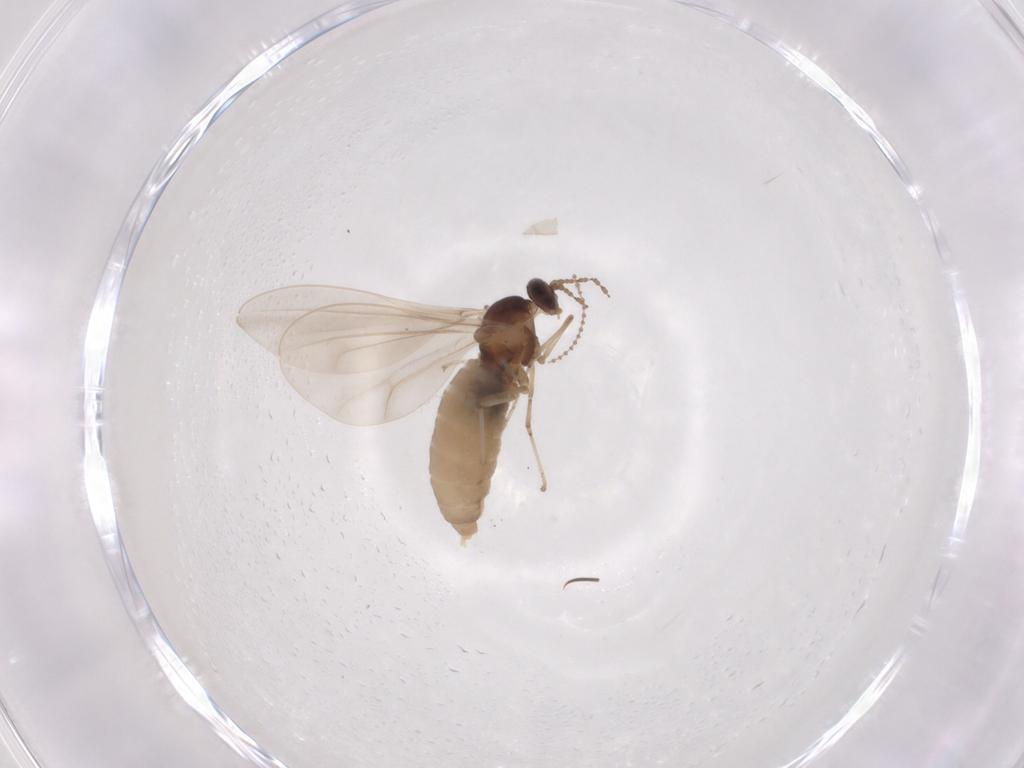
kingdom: Animalia
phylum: Arthropoda
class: Insecta
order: Diptera
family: Cecidomyiidae
